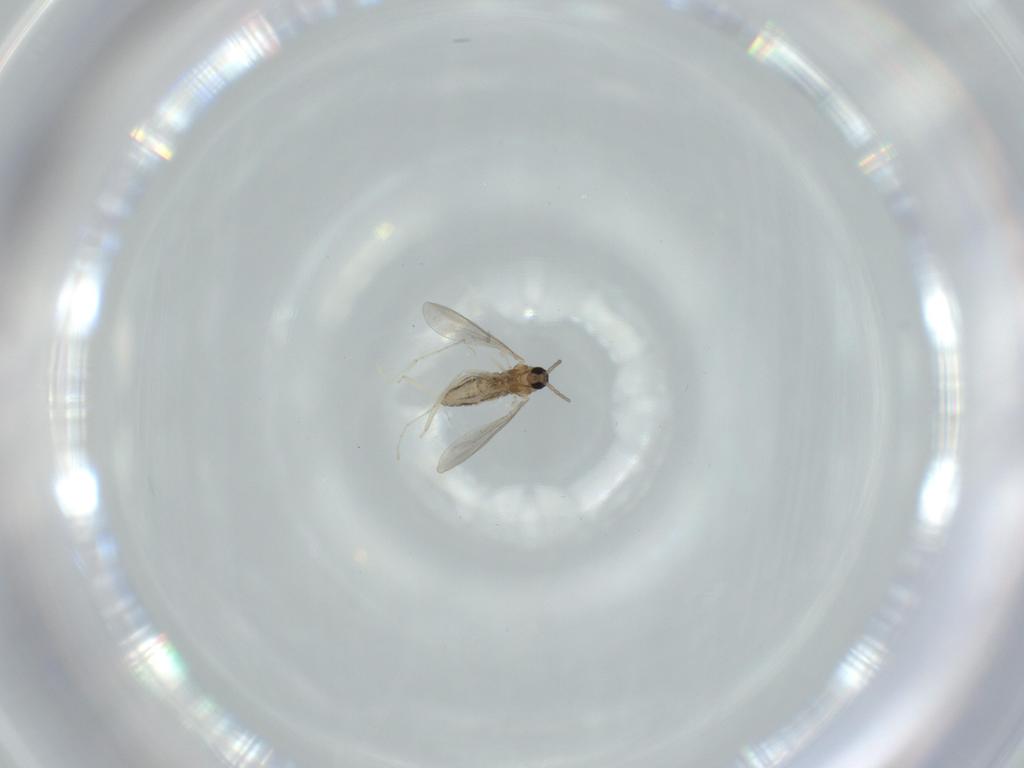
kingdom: Animalia
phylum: Arthropoda
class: Insecta
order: Diptera
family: Cecidomyiidae
